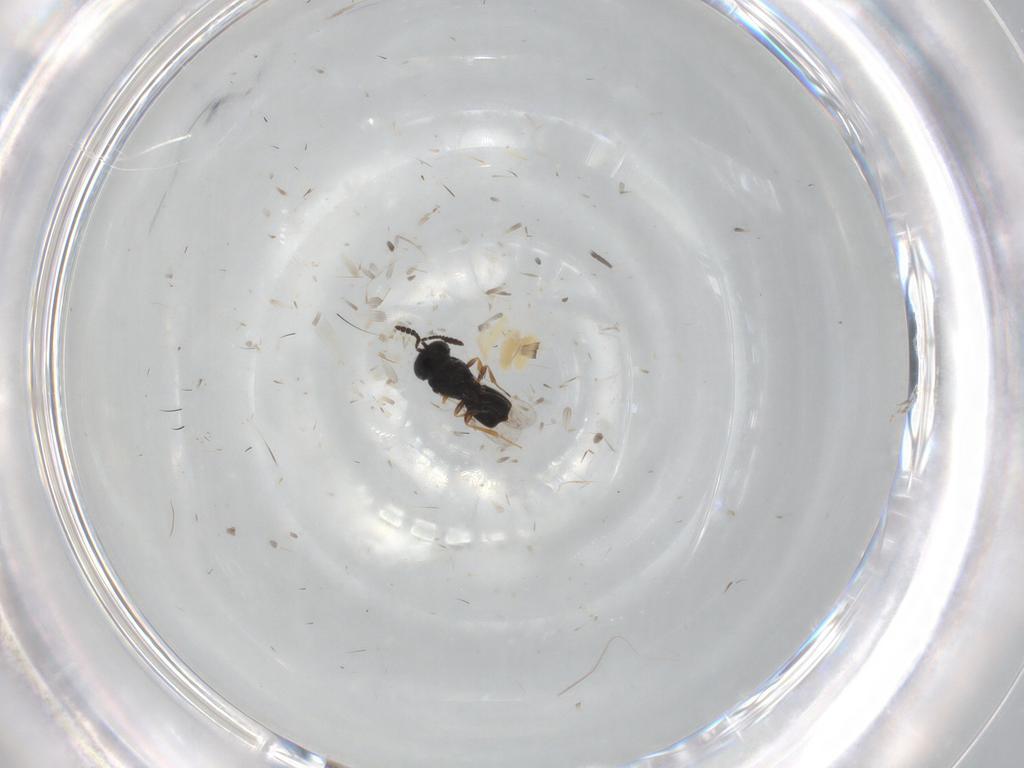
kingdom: Animalia
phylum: Arthropoda
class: Insecta
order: Hymenoptera
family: Scelionidae
